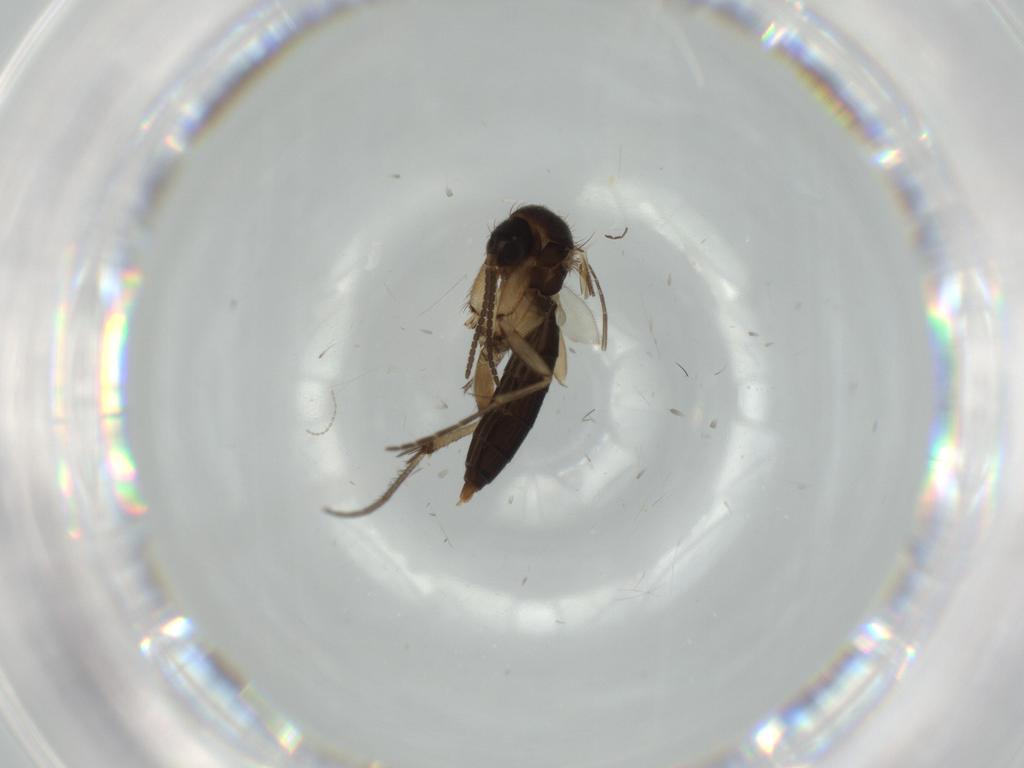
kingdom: Animalia
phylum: Arthropoda
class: Insecta
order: Diptera
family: Chironomidae
